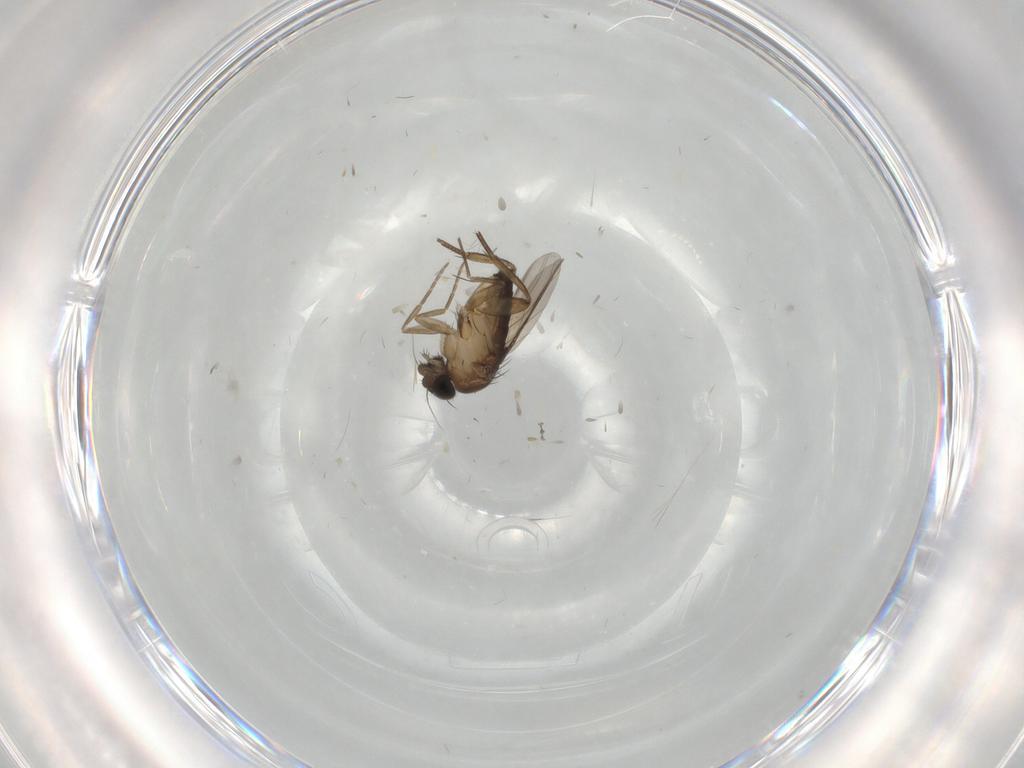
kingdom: Animalia
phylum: Arthropoda
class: Insecta
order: Diptera
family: Phoridae
